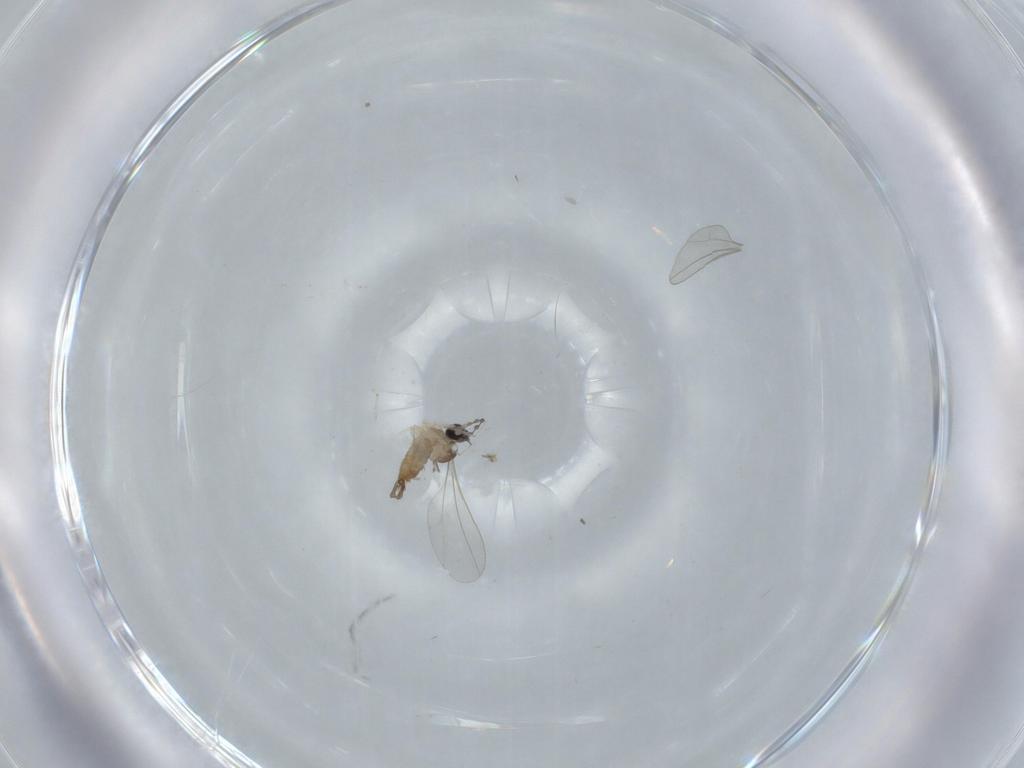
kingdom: Animalia
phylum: Arthropoda
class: Insecta
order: Diptera
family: Cecidomyiidae
